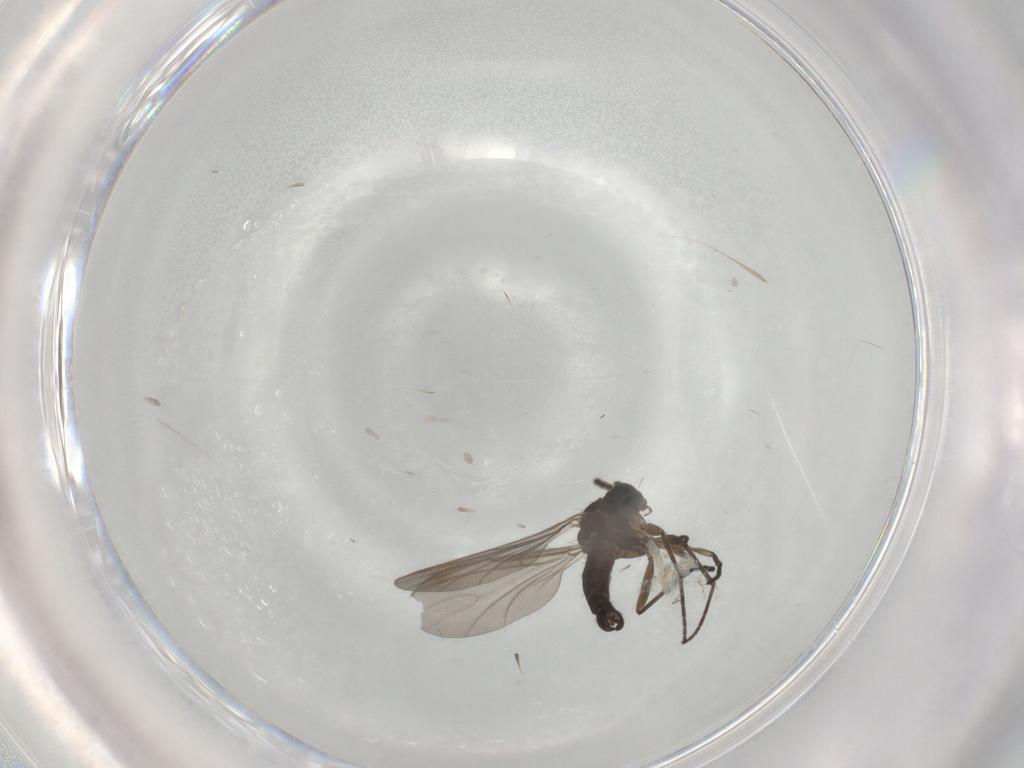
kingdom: Animalia
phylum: Arthropoda
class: Insecta
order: Diptera
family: Sciaridae
